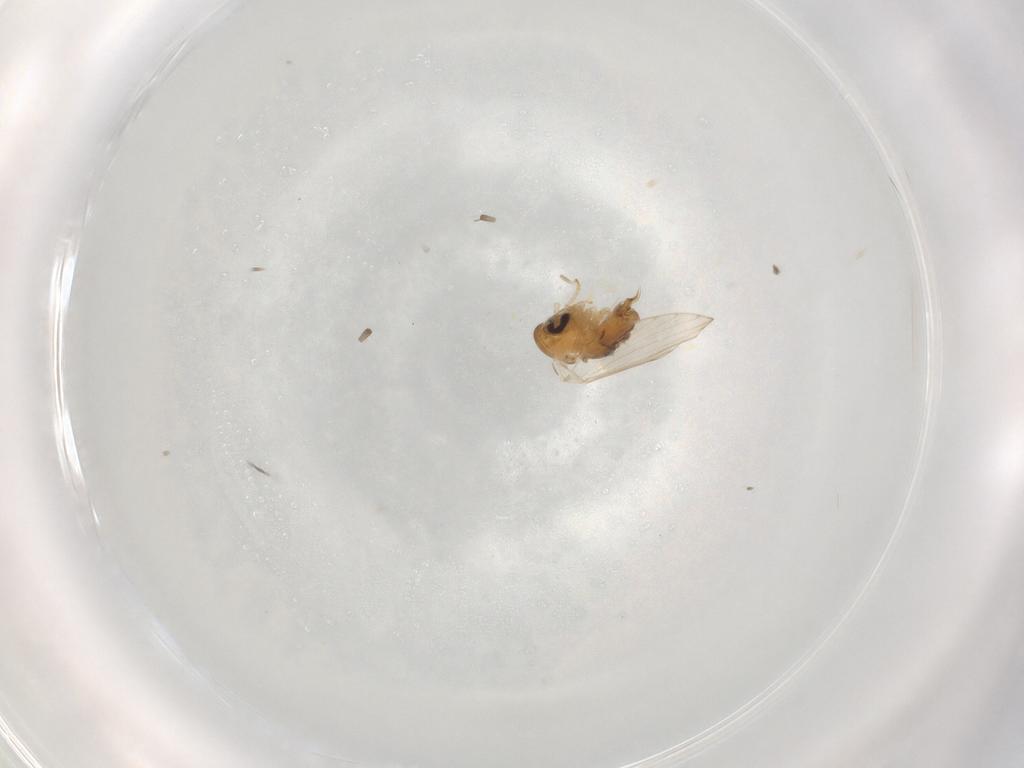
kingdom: Animalia
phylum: Arthropoda
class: Insecta
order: Diptera
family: Psychodidae
